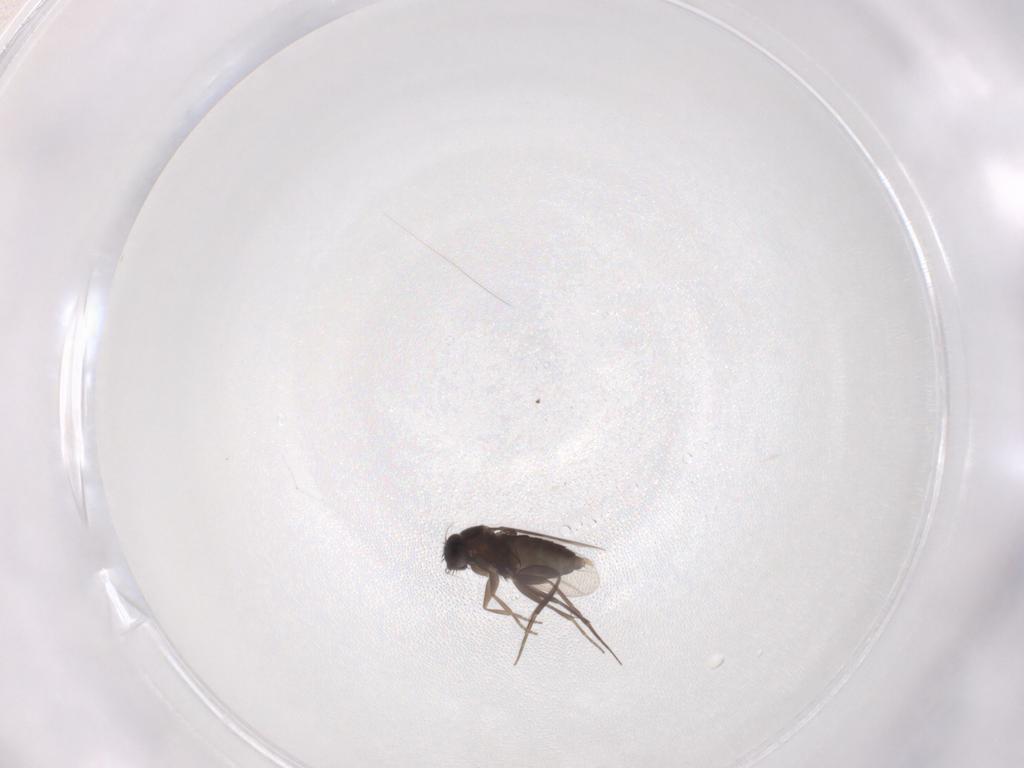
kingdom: Animalia
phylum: Arthropoda
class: Insecta
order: Diptera
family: Phoridae
